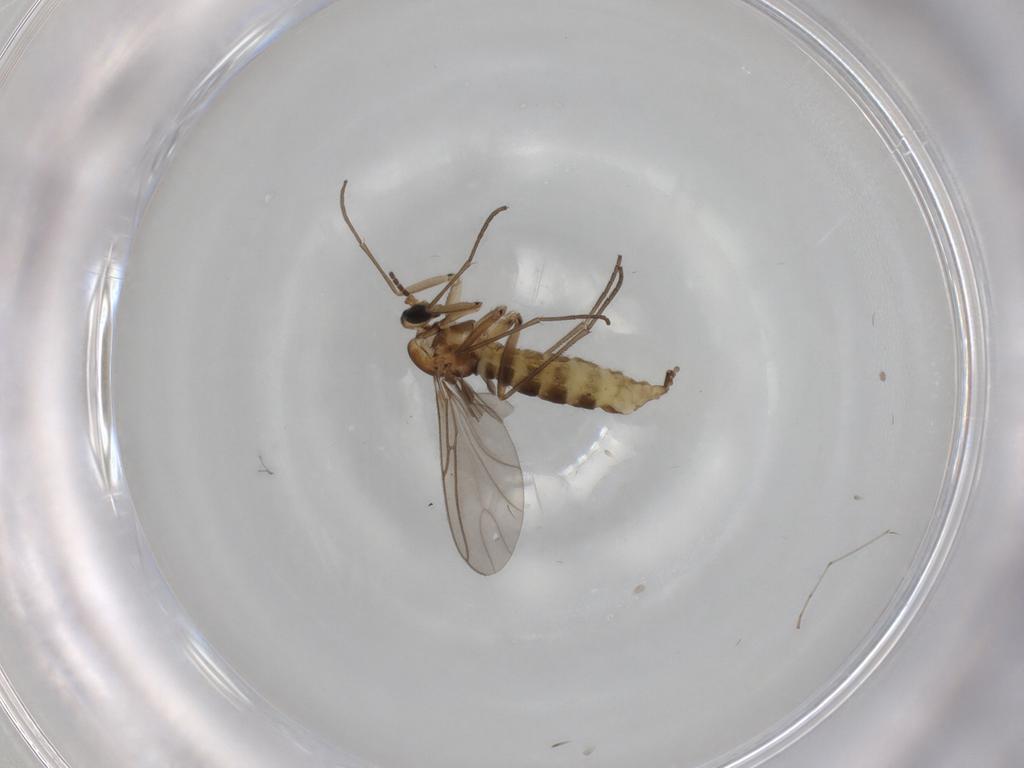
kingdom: Animalia
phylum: Arthropoda
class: Insecta
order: Diptera
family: Sciaridae
